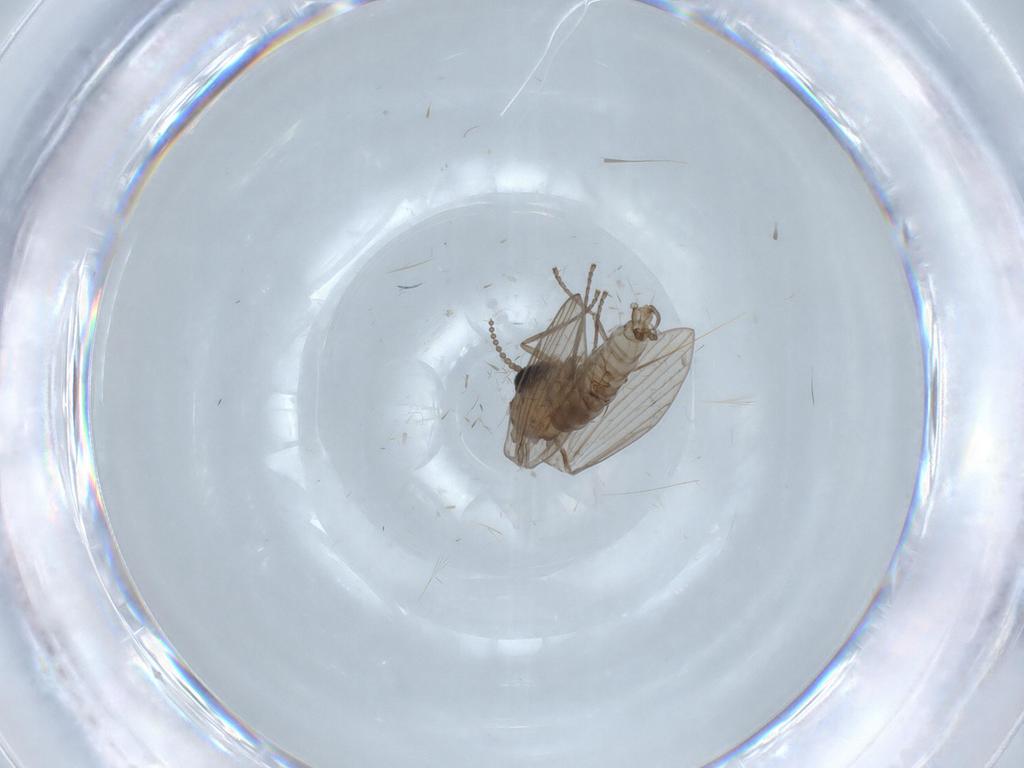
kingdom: Animalia
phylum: Arthropoda
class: Insecta
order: Diptera
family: Psychodidae
